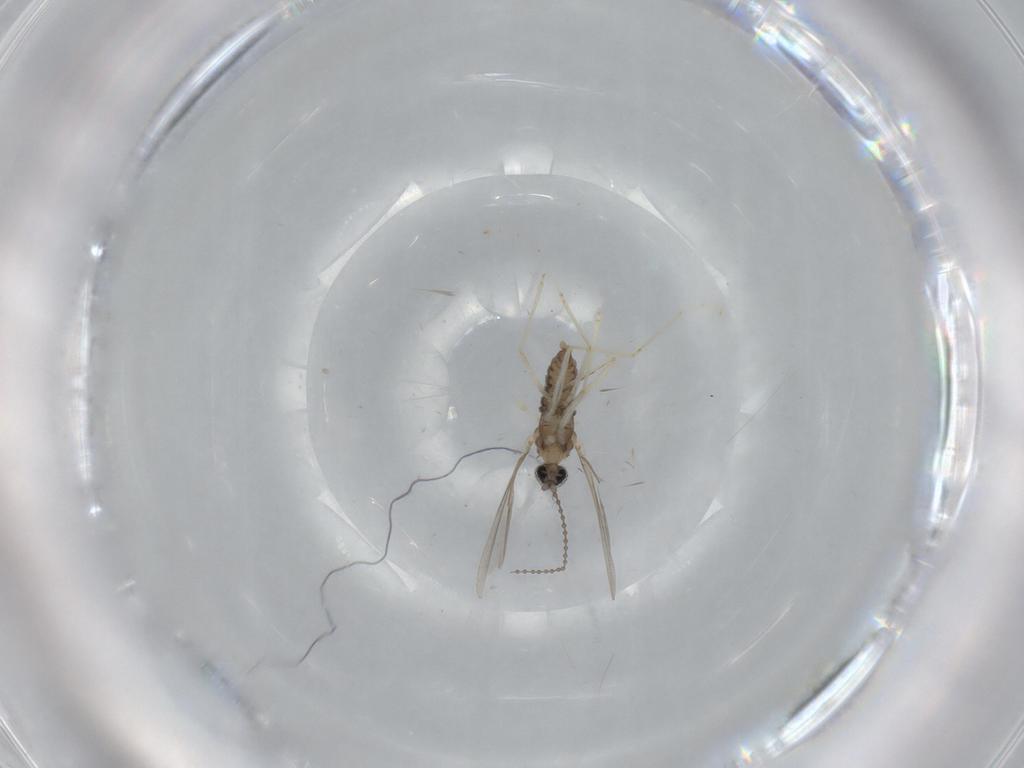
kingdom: Animalia
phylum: Arthropoda
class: Insecta
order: Diptera
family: Cecidomyiidae
